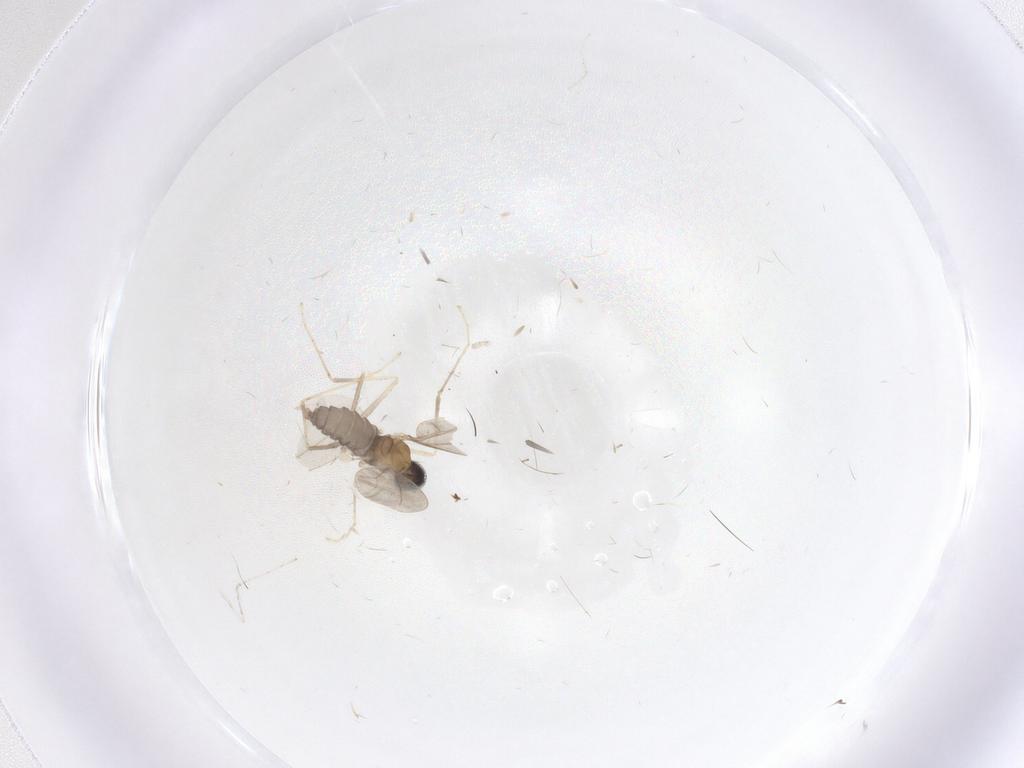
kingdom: Animalia
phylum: Arthropoda
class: Insecta
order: Diptera
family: Cecidomyiidae
